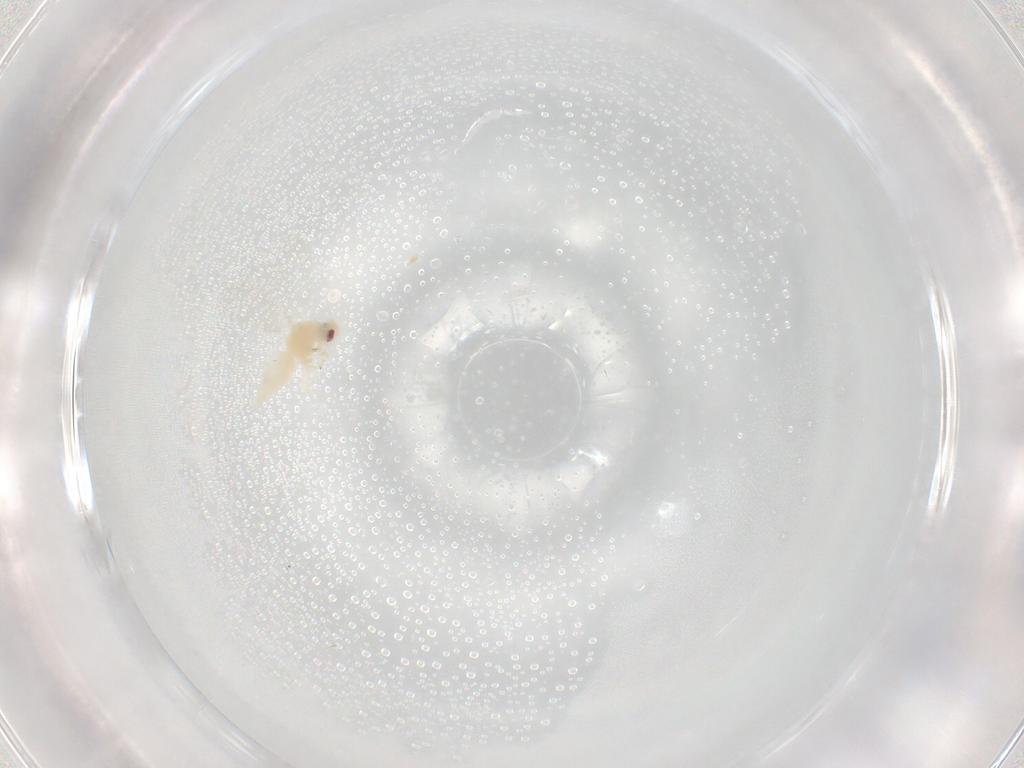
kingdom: Animalia
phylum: Arthropoda
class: Insecta
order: Hemiptera
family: Aleyrodidae
